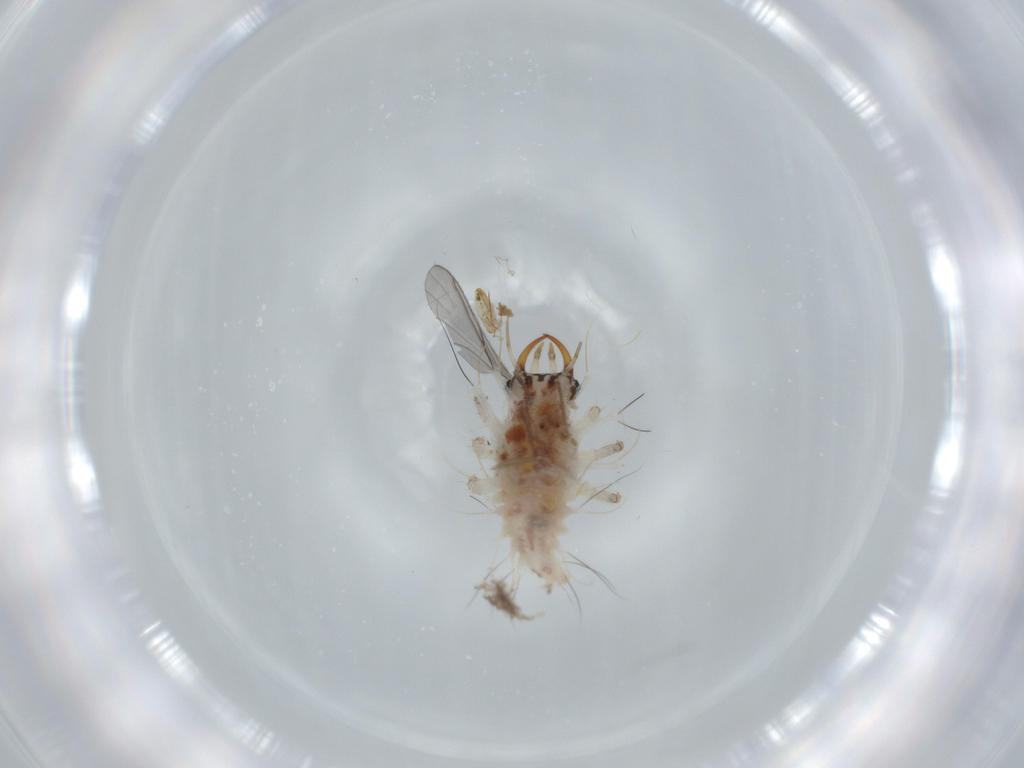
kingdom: Animalia
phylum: Arthropoda
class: Insecta
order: Neuroptera
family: Chrysopidae
